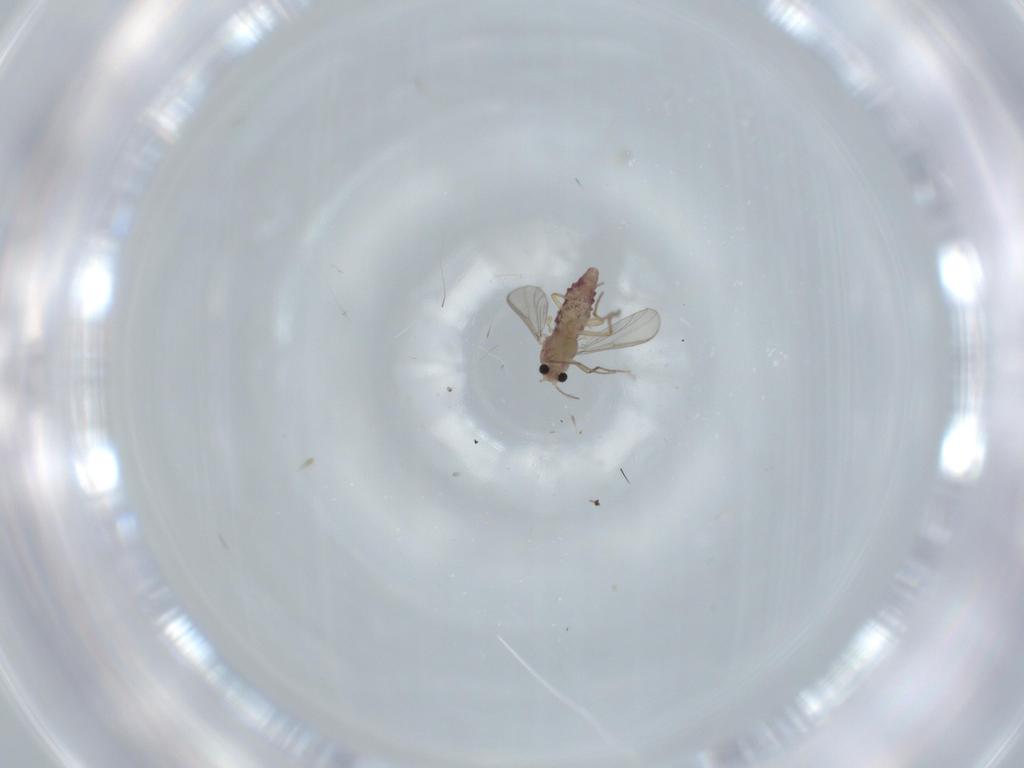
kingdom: Animalia
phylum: Arthropoda
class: Insecta
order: Diptera
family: Chironomidae
